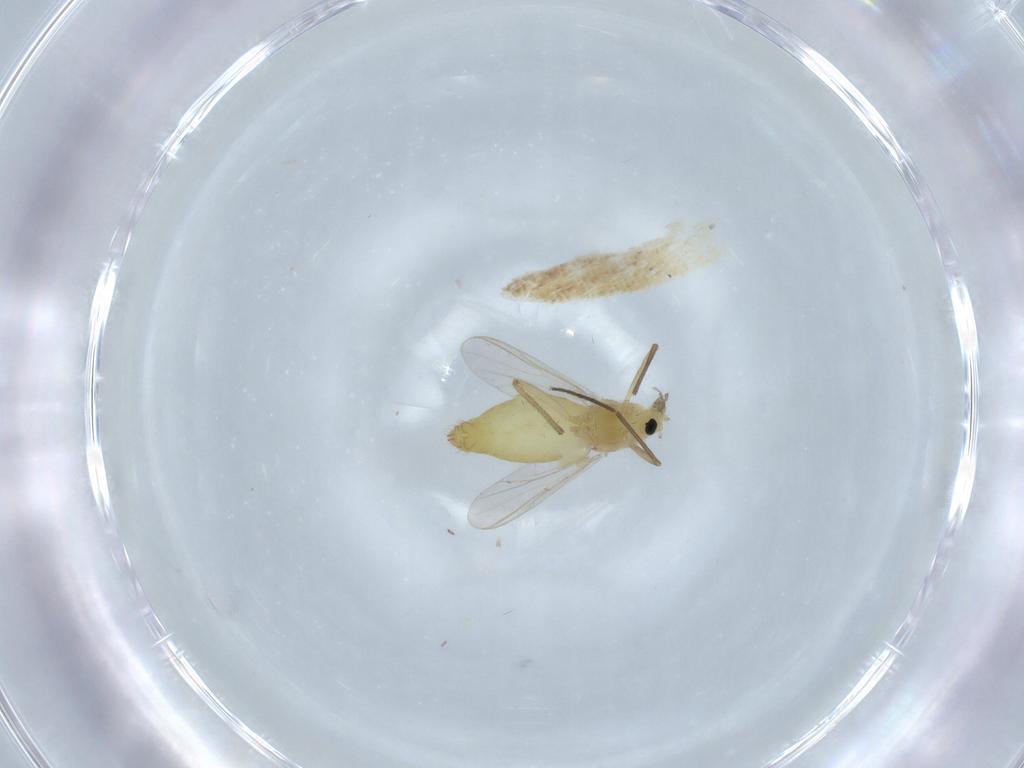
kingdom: Animalia
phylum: Arthropoda
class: Insecta
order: Diptera
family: Chironomidae
